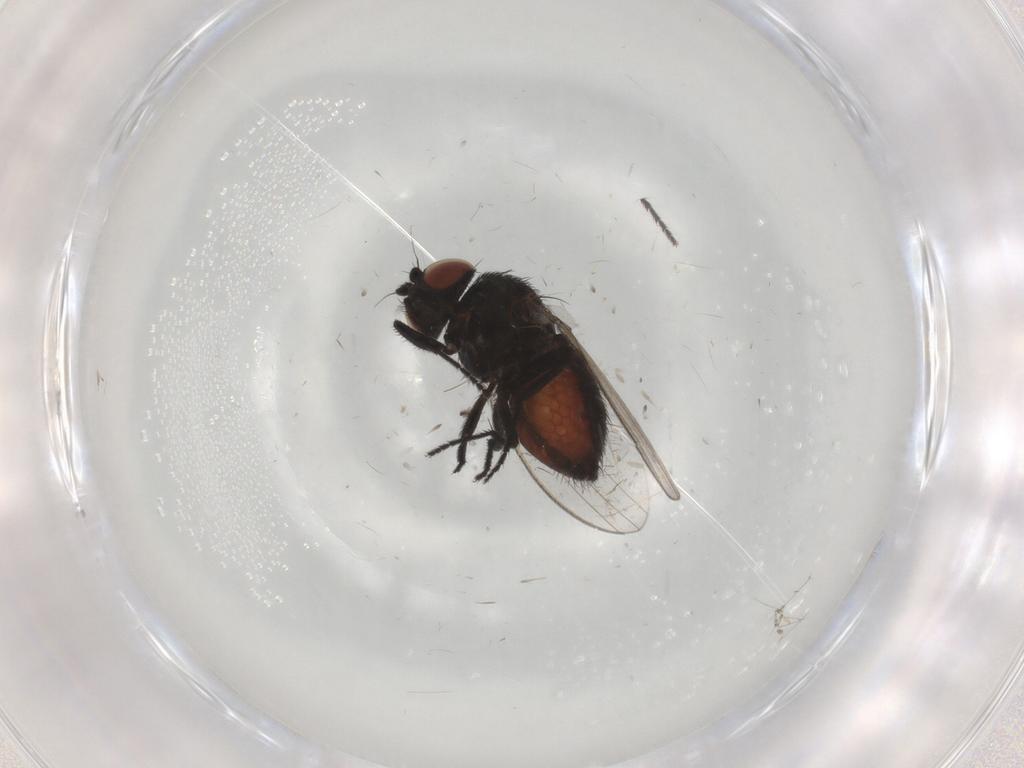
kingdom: Animalia
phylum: Arthropoda
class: Insecta
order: Diptera
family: Milichiidae
